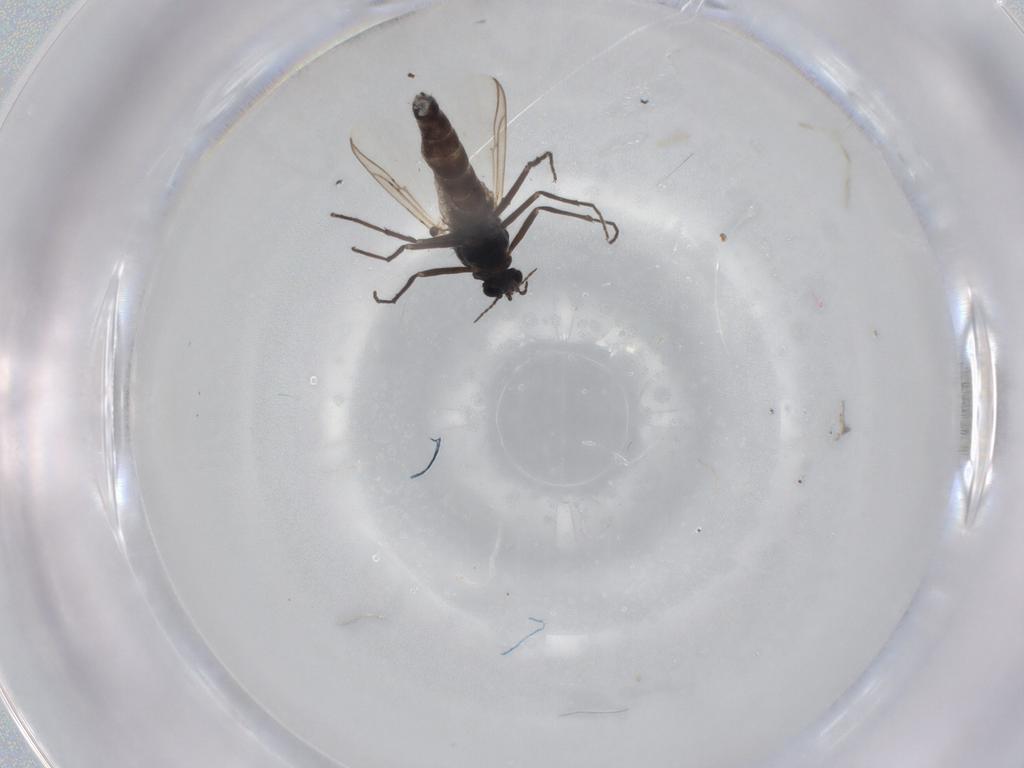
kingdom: Animalia
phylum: Arthropoda
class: Insecta
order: Diptera
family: Chironomidae
